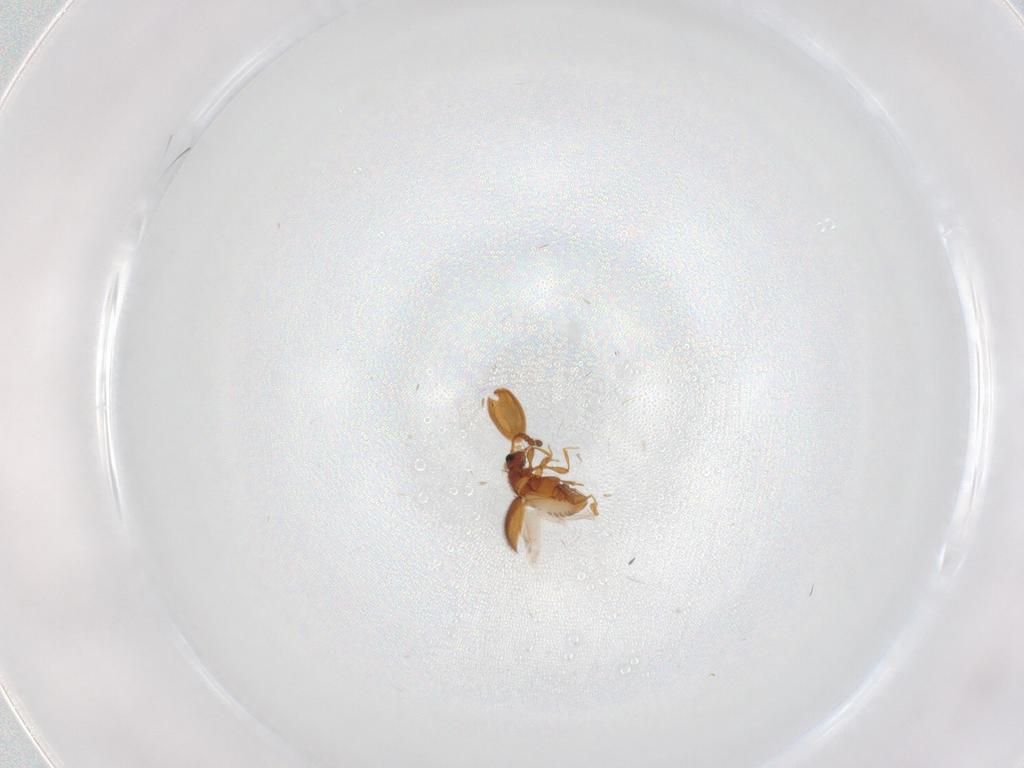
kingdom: Animalia
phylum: Arthropoda
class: Insecta
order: Coleoptera
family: Staphylinidae
